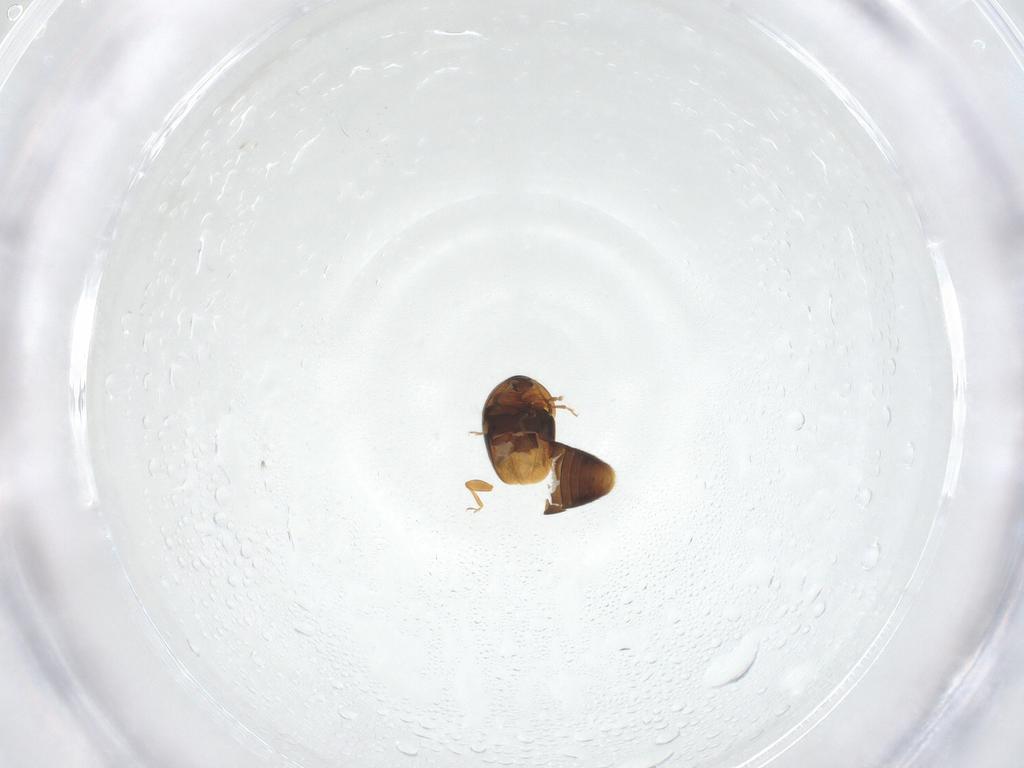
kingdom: Animalia
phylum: Arthropoda
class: Insecta
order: Coleoptera
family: Corylophidae
